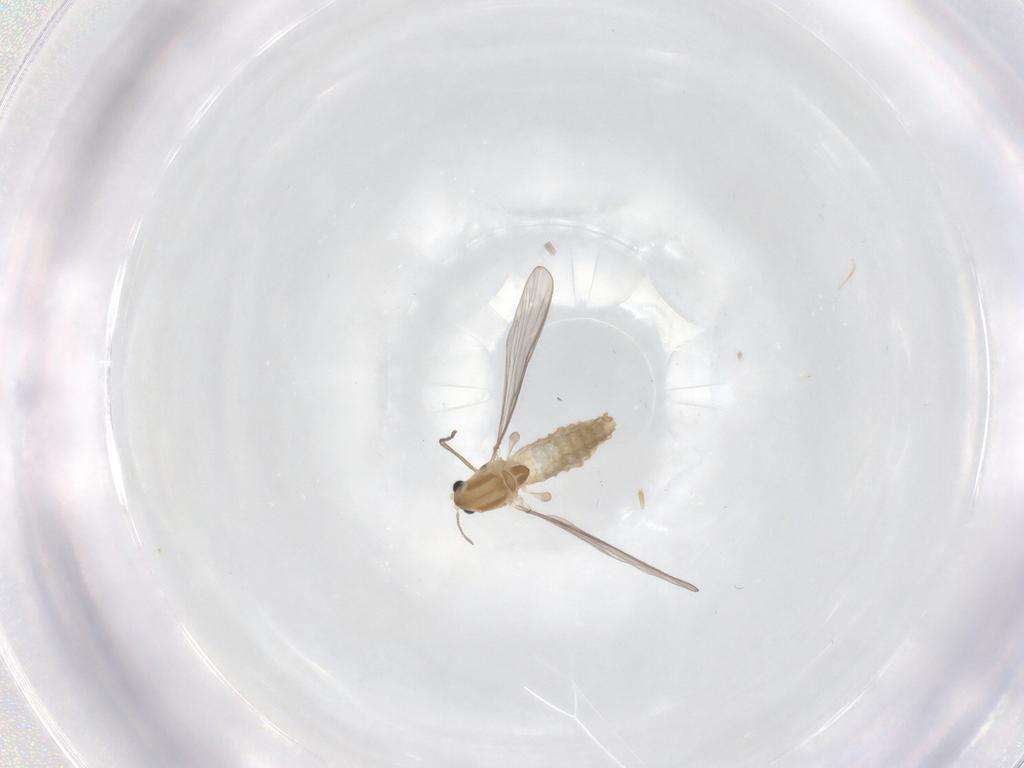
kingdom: Animalia
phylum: Arthropoda
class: Insecta
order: Diptera
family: Chironomidae
